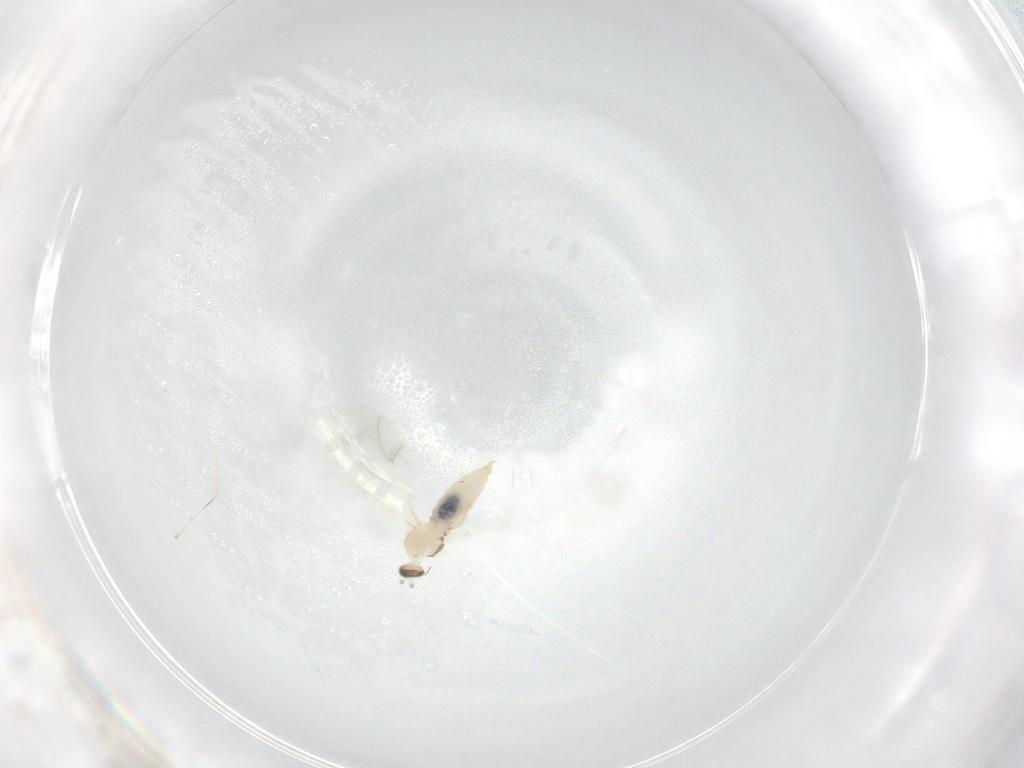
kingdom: Animalia
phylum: Arthropoda
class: Insecta
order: Diptera
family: Cecidomyiidae
